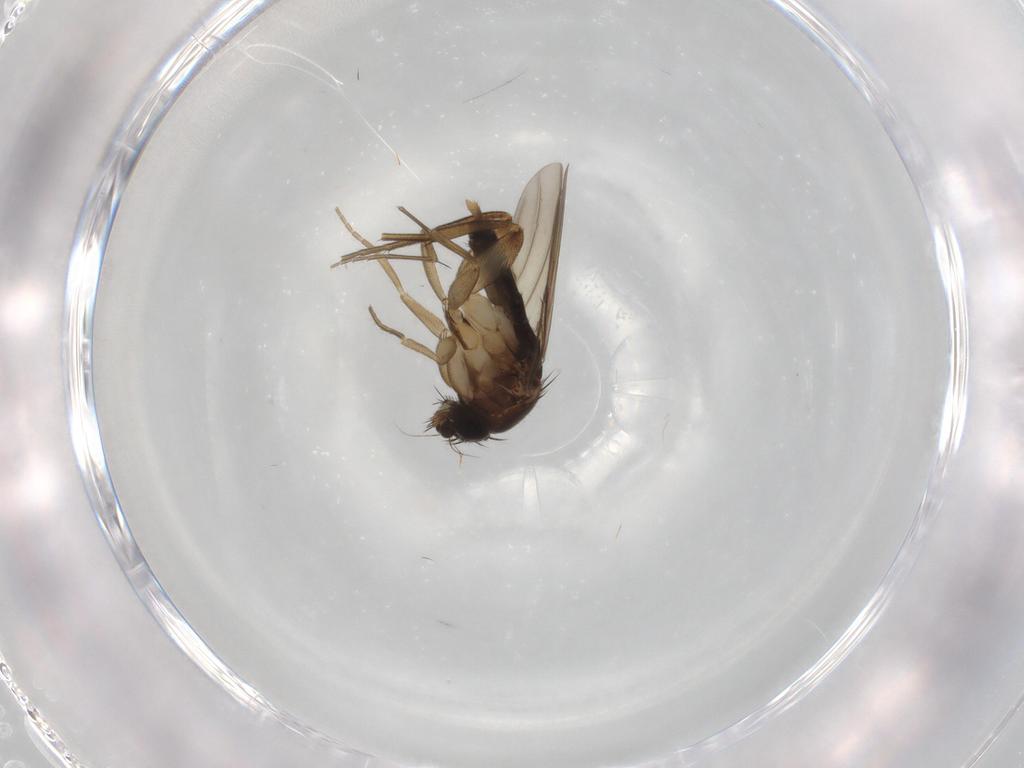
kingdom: Animalia
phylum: Arthropoda
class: Insecta
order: Diptera
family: Phoridae
